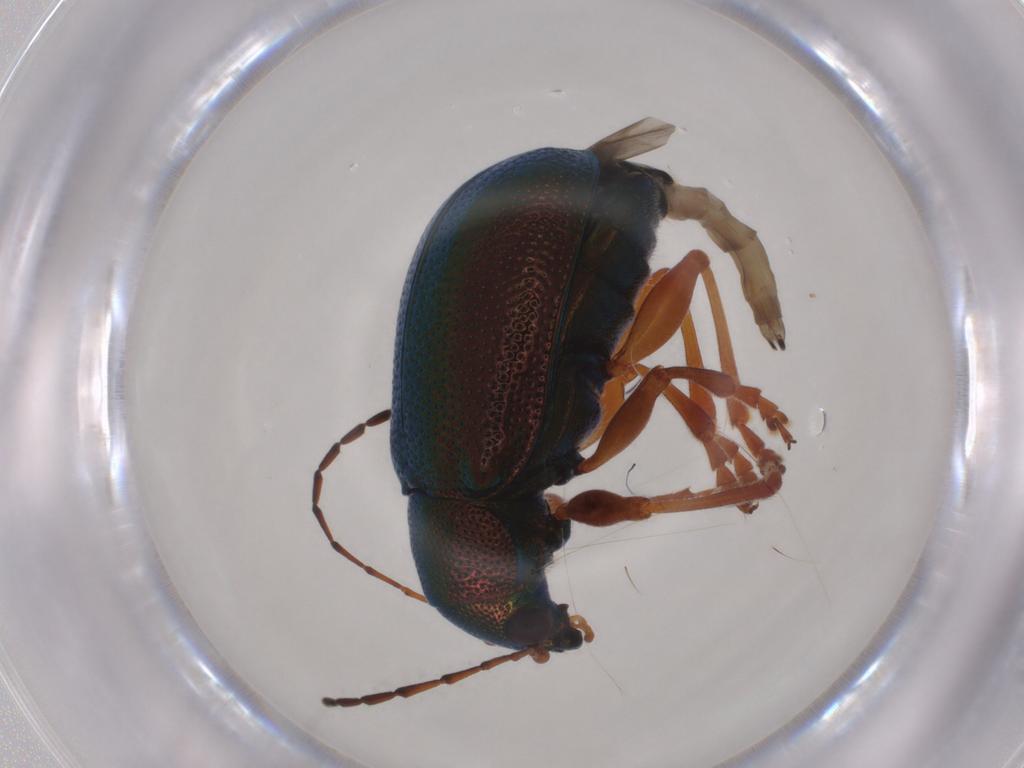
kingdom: Animalia
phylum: Arthropoda
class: Insecta
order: Coleoptera
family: Chrysomelidae
